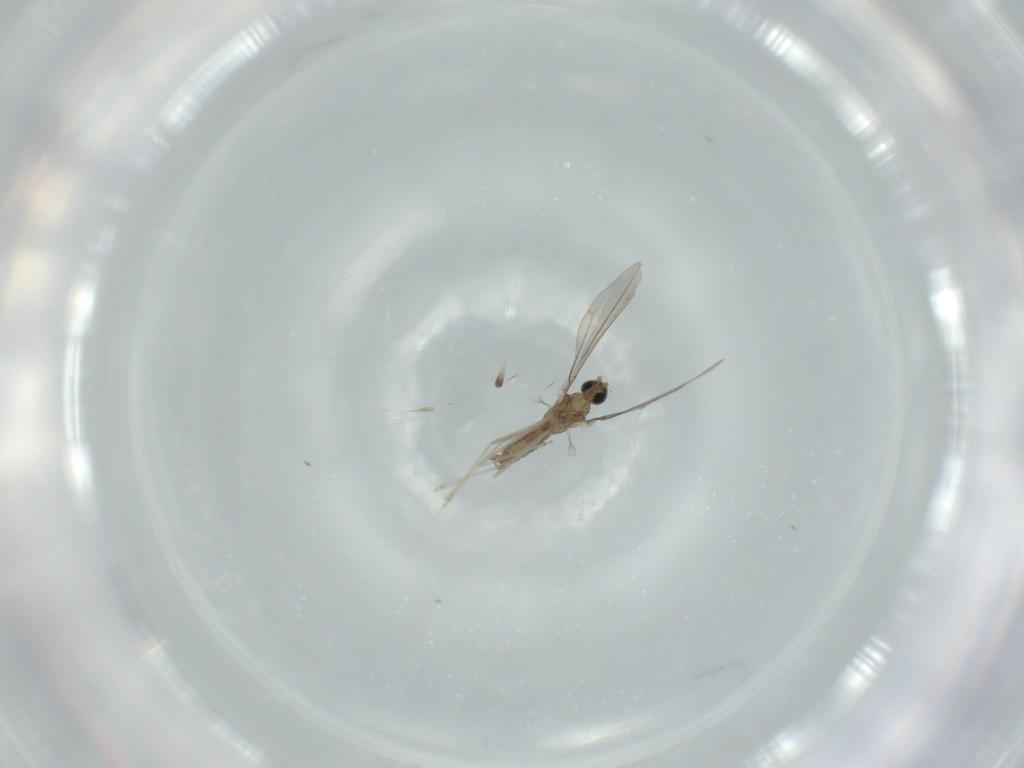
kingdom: Animalia
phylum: Arthropoda
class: Insecta
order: Diptera
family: Cecidomyiidae
